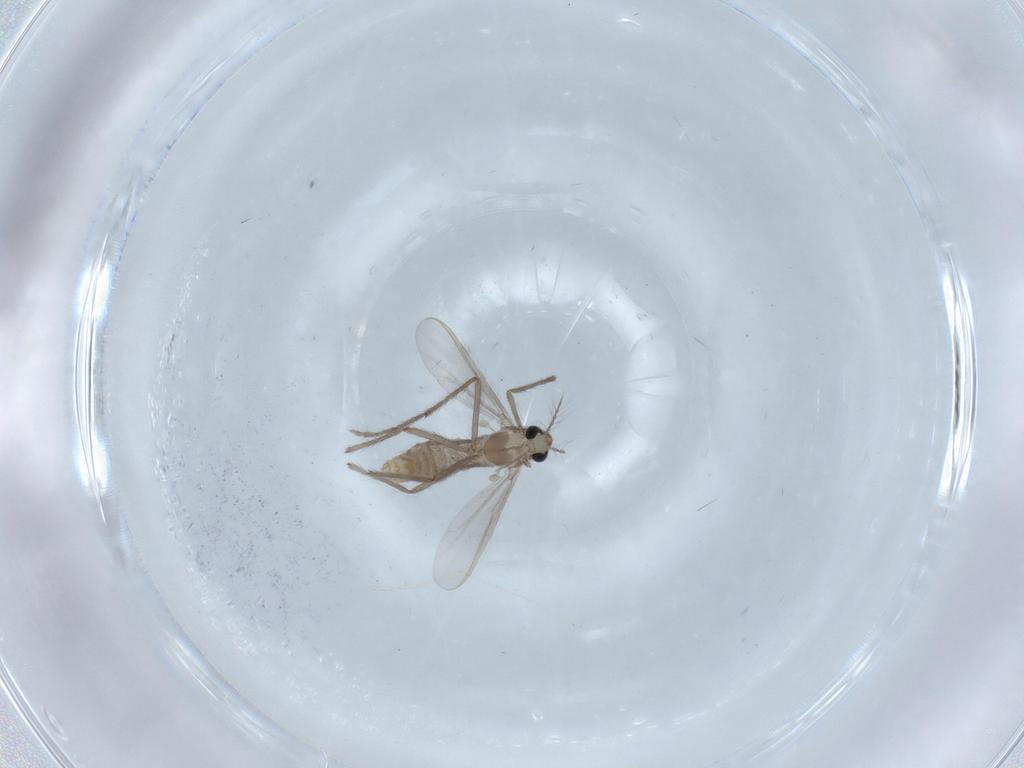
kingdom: Animalia
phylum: Arthropoda
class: Insecta
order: Diptera
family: Chironomidae
